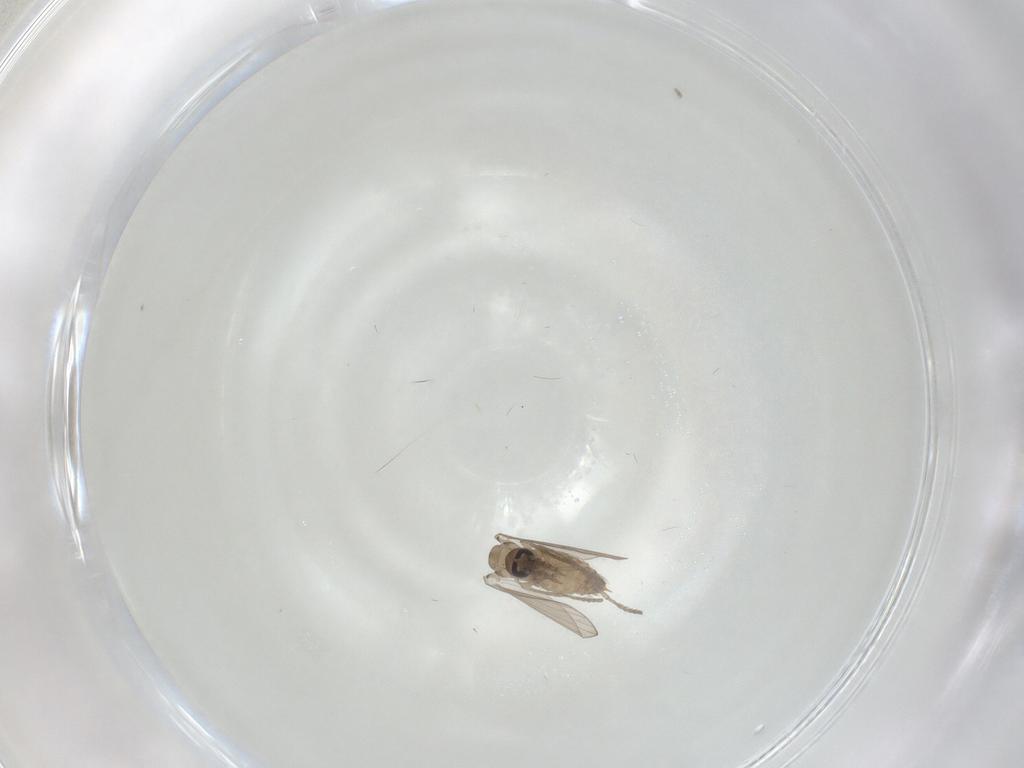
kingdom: Animalia
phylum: Arthropoda
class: Insecta
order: Diptera
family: Psychodidae
